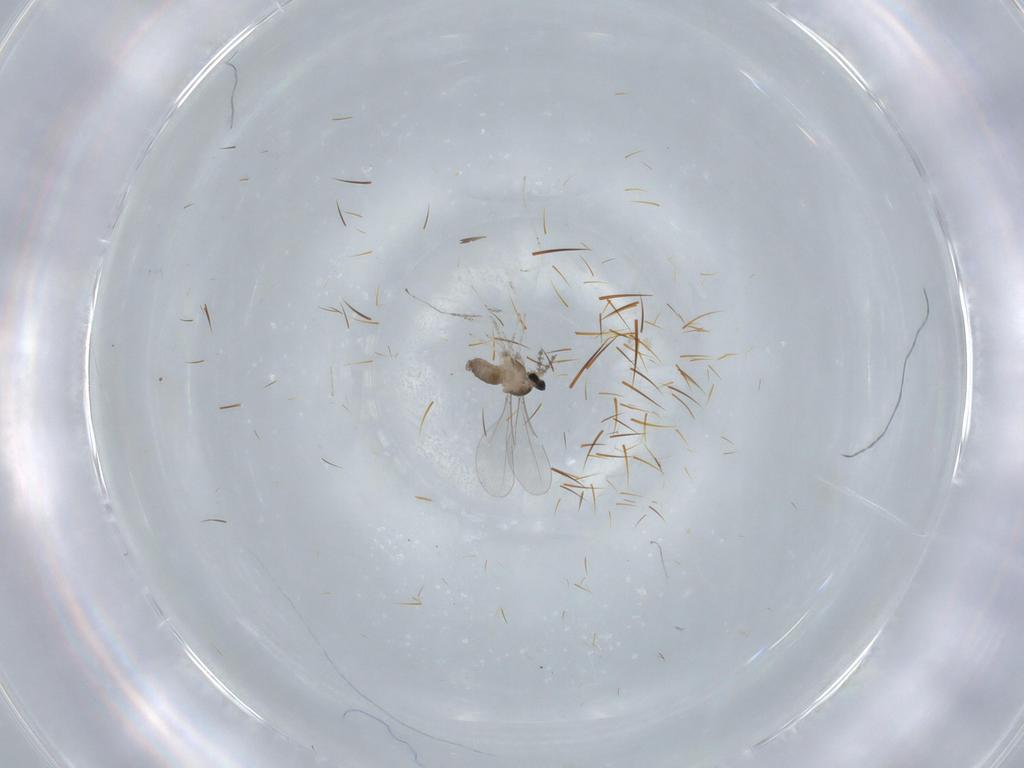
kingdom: Animalia
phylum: Arthropoda
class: Insecta
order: Diptera
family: Cecidomyiidae
